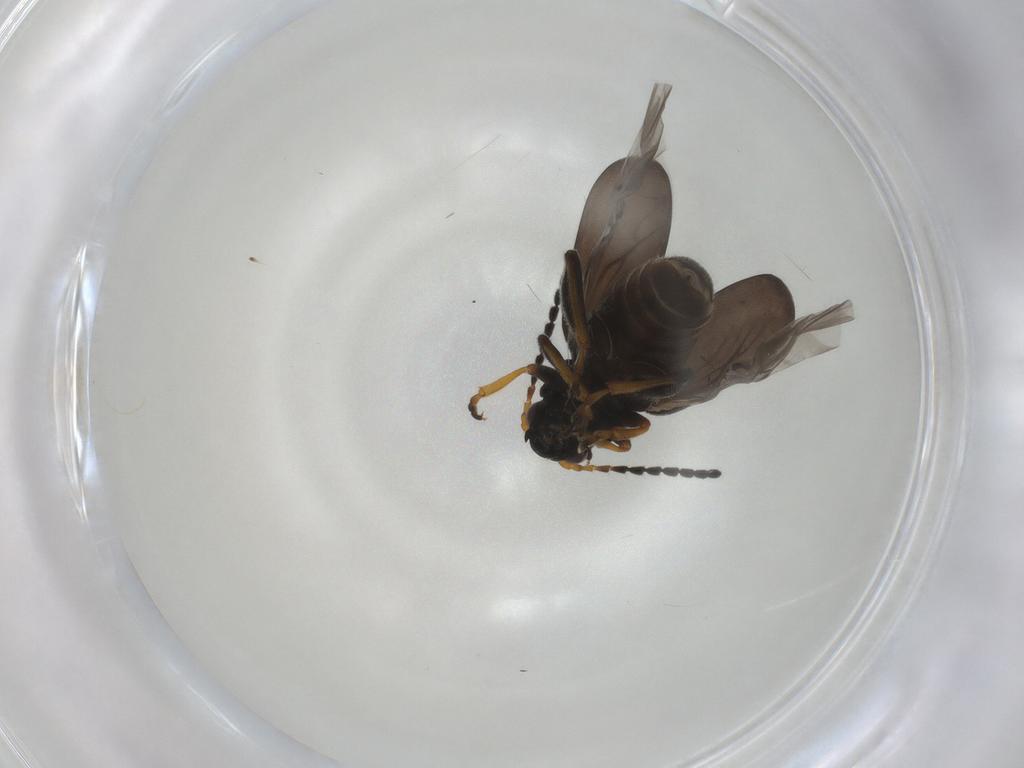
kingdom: Animalia
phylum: Arthropoda
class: Insecta
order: Coleoptera
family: Chrysomelidae
